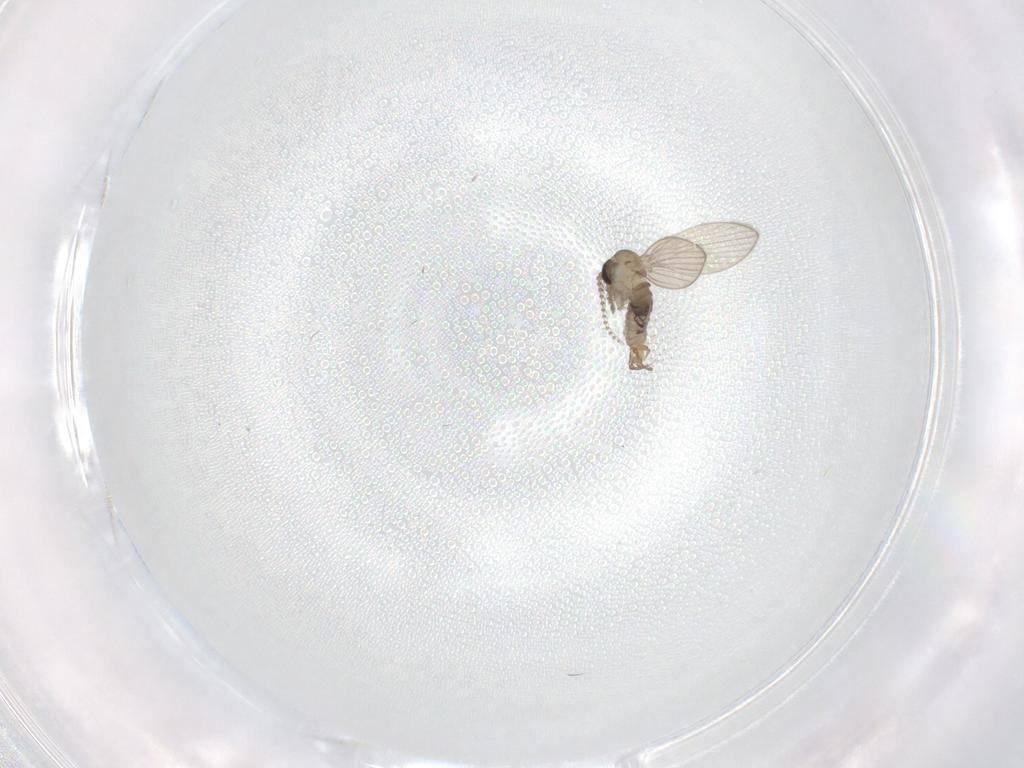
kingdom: Animalia
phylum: Arthropoda
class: Insecta
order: Diptera
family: Psychodidae
